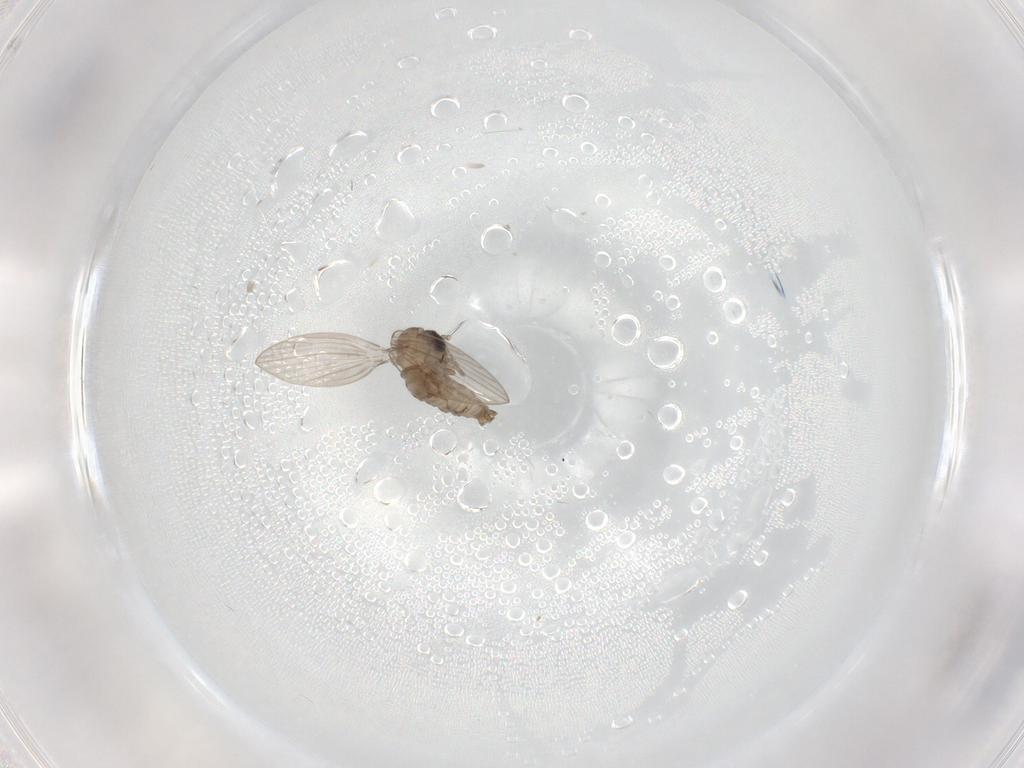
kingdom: Animalia
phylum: Arthropoda
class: Insecta
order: Diptera
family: Psychodidae
